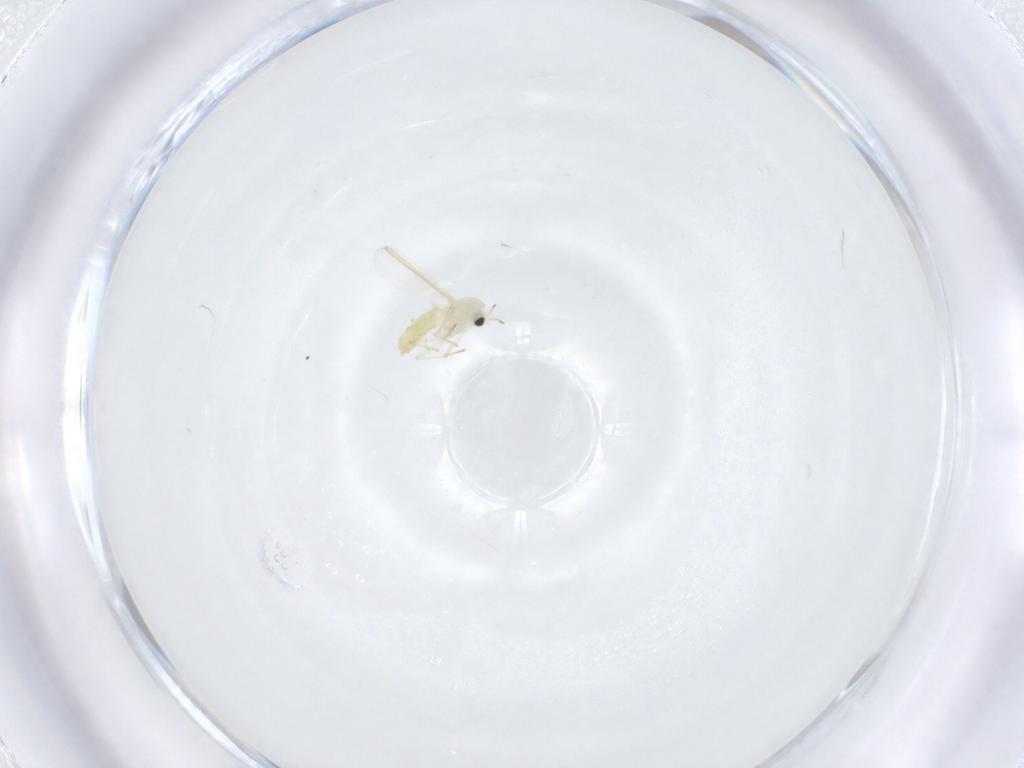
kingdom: Animalia
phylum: Arthropoda
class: Insecta
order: Diptera
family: Chironomidae
